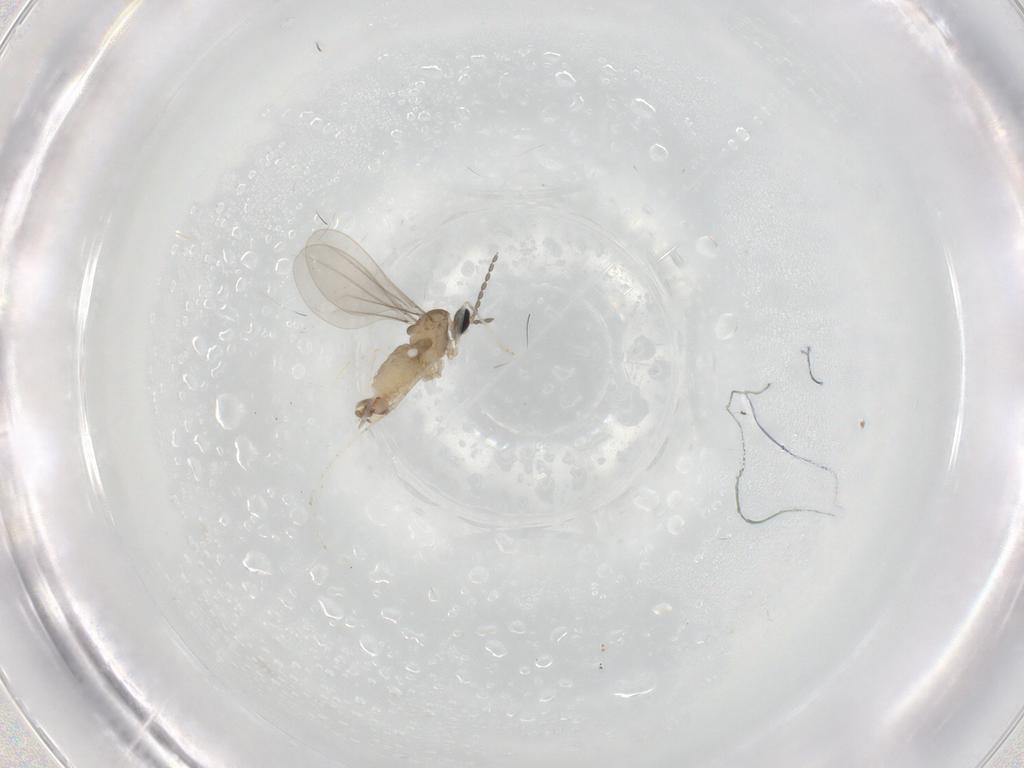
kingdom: Animalia
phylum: Arthropoda
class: Insecta
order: Diptera
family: Cecidomyiidae
